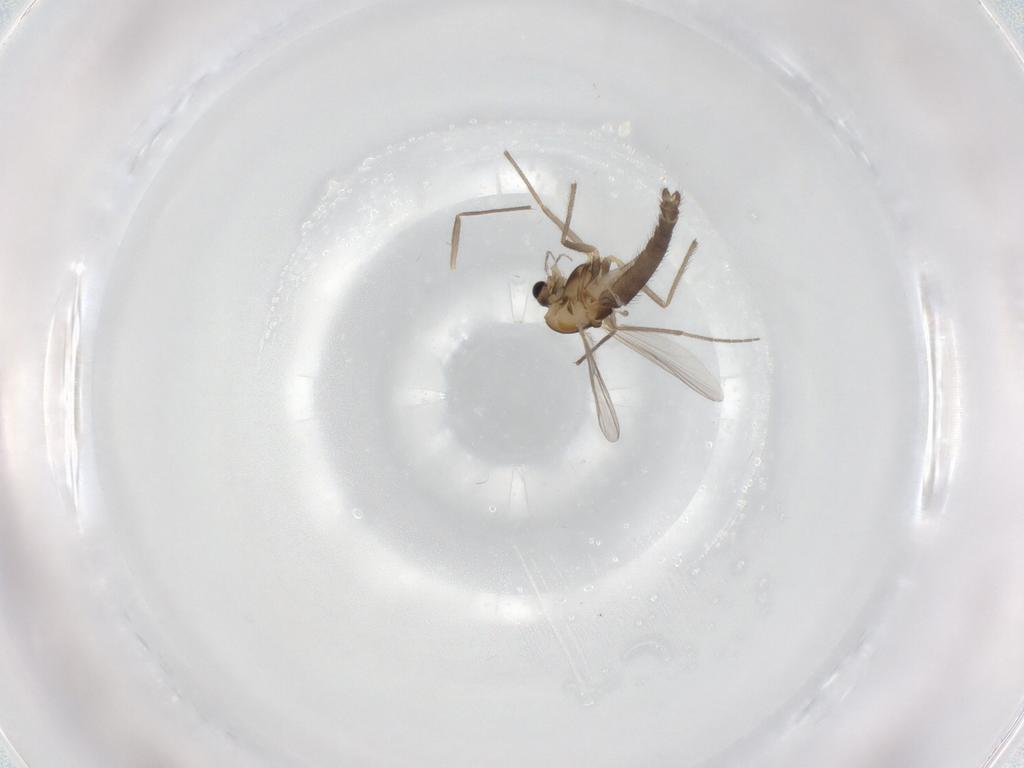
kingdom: Animalia
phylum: Arthropoda
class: Insecta
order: Diptera
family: Chironomidae
